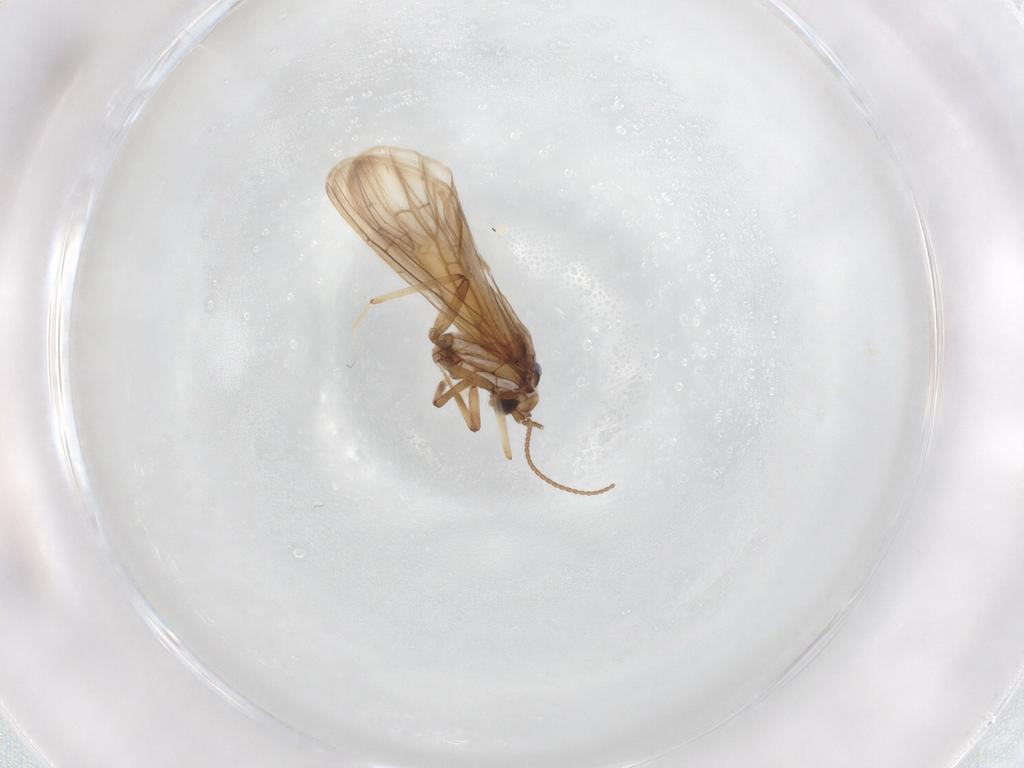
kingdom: Animalia
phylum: Arthropoda
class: Insecta
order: Neuroptera
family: Coniopterygidae
